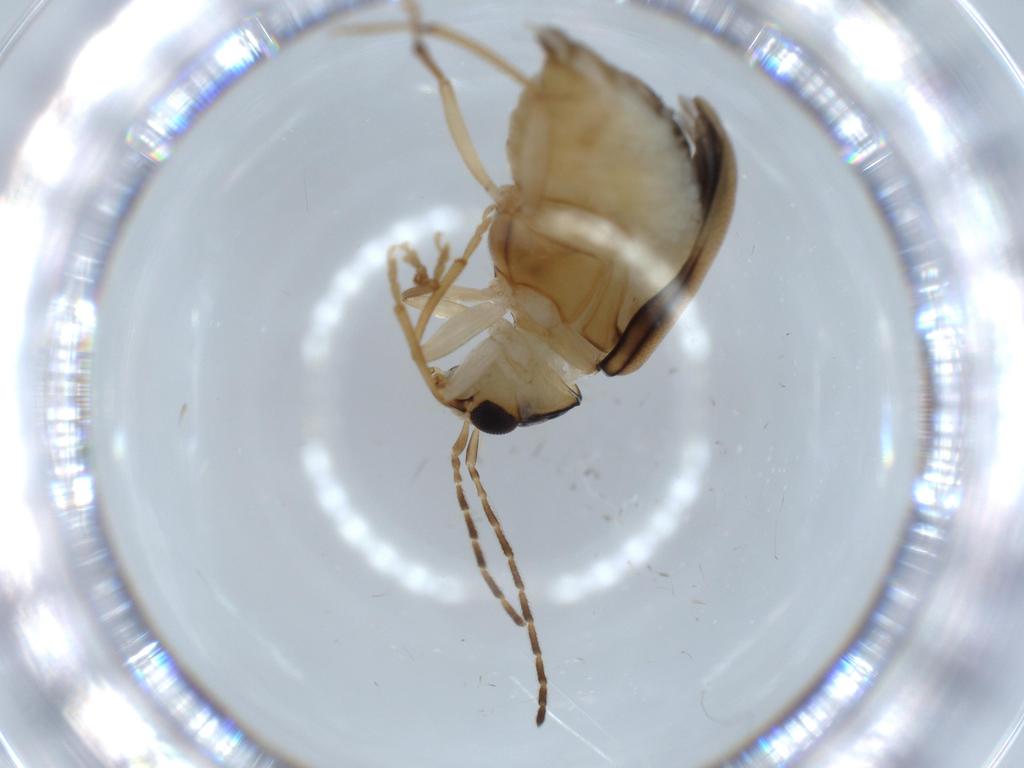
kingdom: Animalia
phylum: Arthropoda
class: Insecta
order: Coleoptera
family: Chrysomelidae
